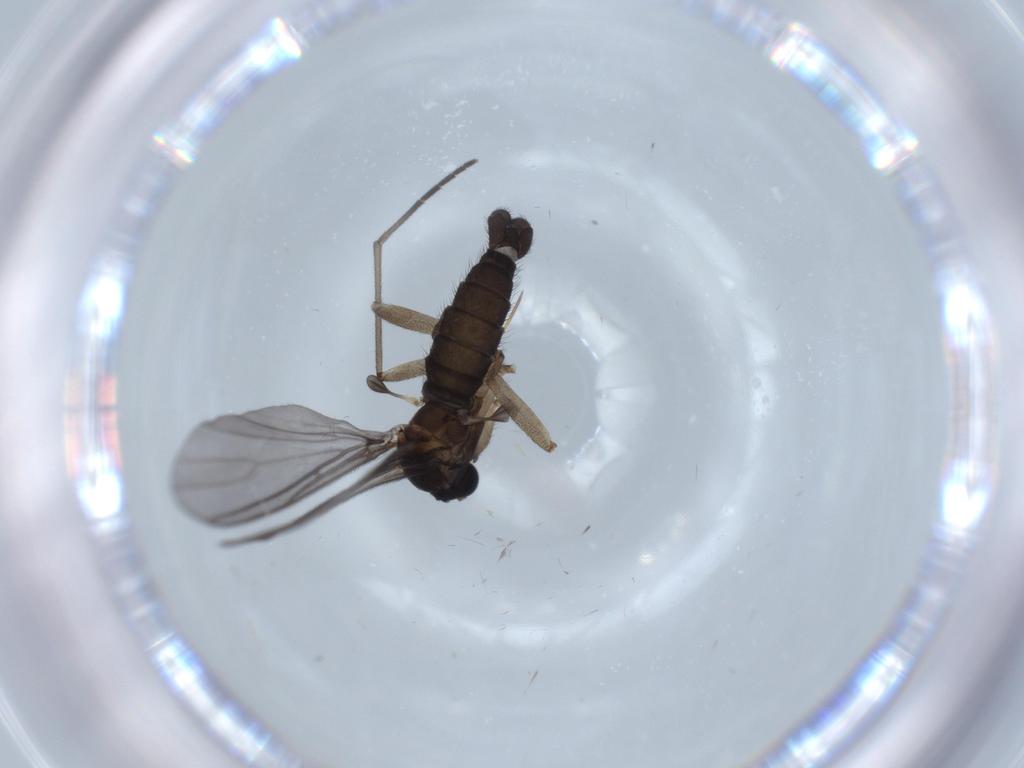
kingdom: Animalia
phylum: Arthropoda
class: Insecta
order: Diptera
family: Sciaridae
